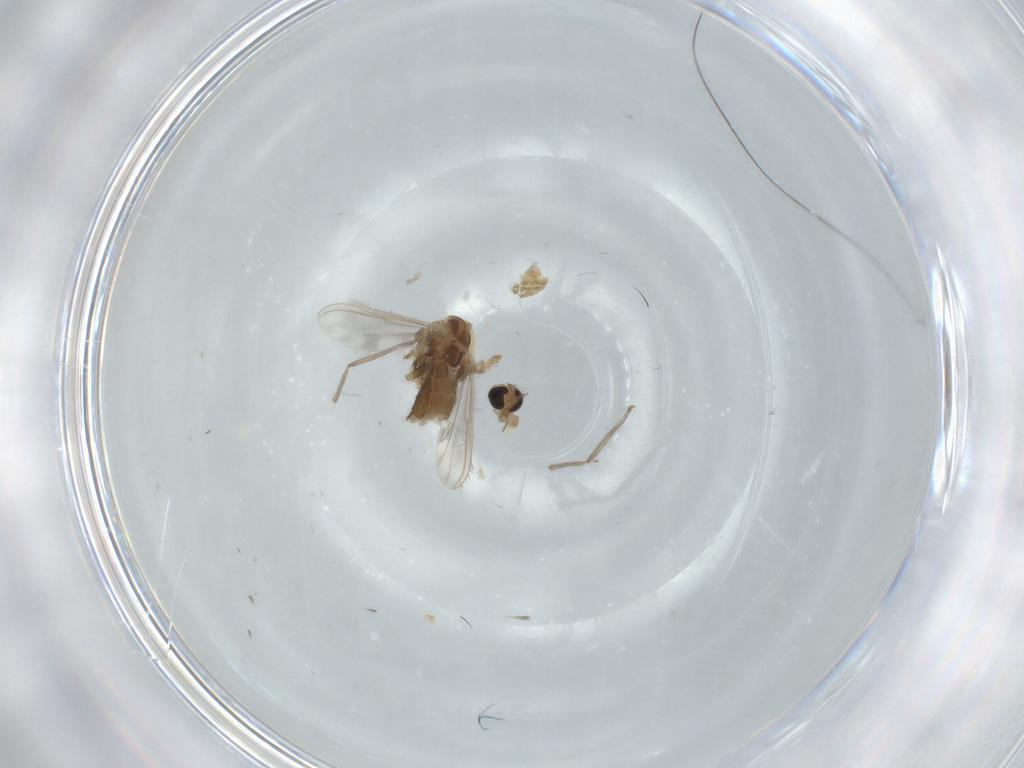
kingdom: Animalia
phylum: Arthropoda
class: Insecta
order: Diptera
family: Chironomidae
